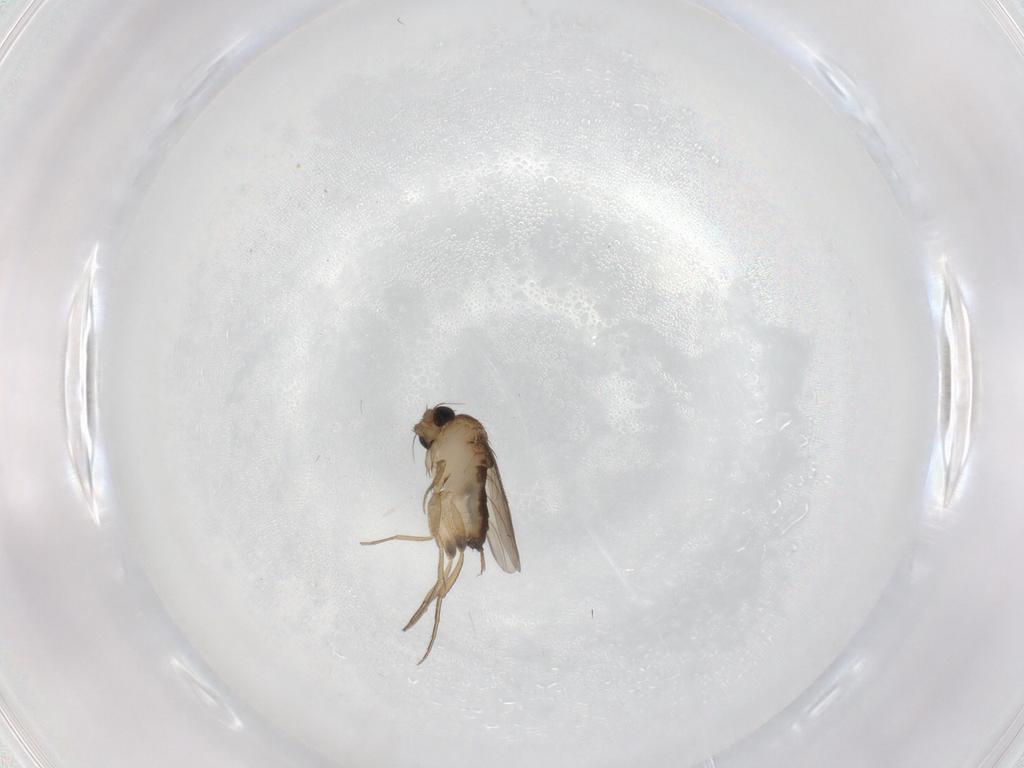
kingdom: Animalia
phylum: Arthropoda
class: Insecta
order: Diptera
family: Phoridae
